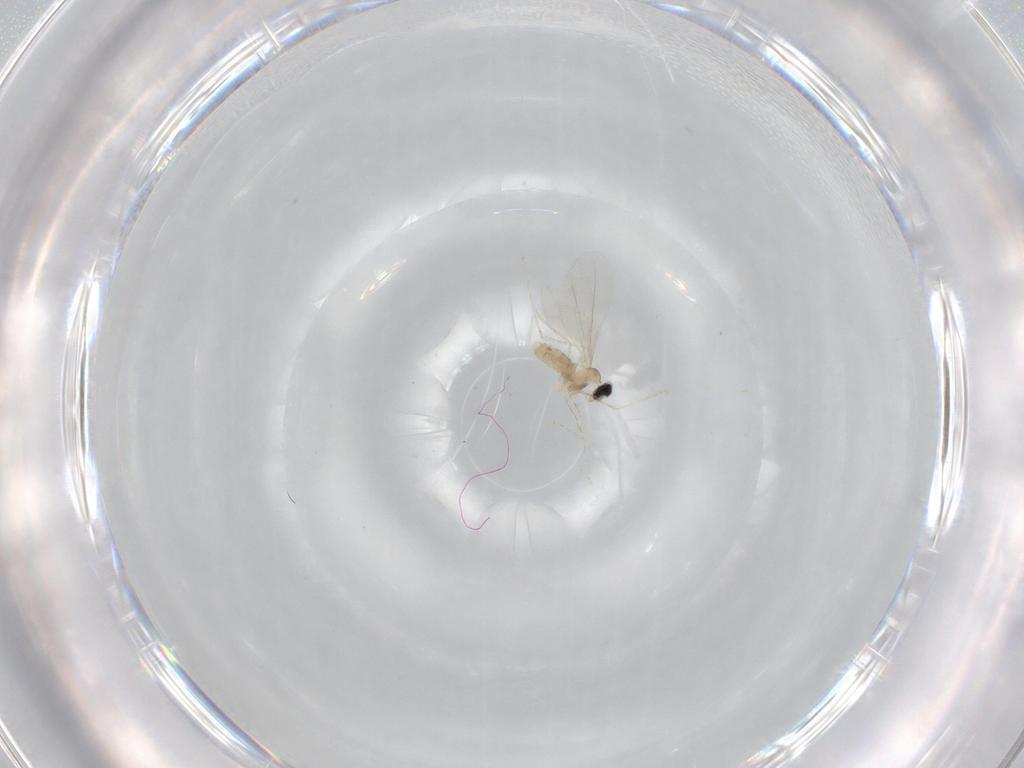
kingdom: Animalia
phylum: Arthropoda
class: Insecta
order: Diptera
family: Cecidomyiidae
